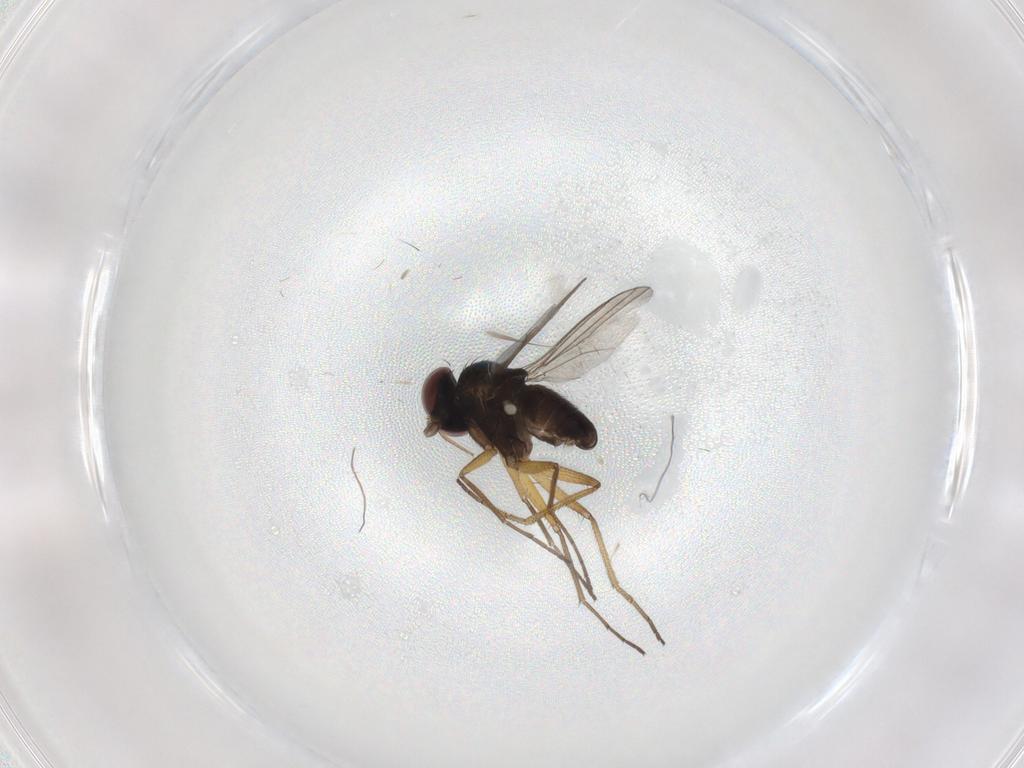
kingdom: Animalia
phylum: Arthropoda
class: Insecta
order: Diptera
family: Dolichopodidae
